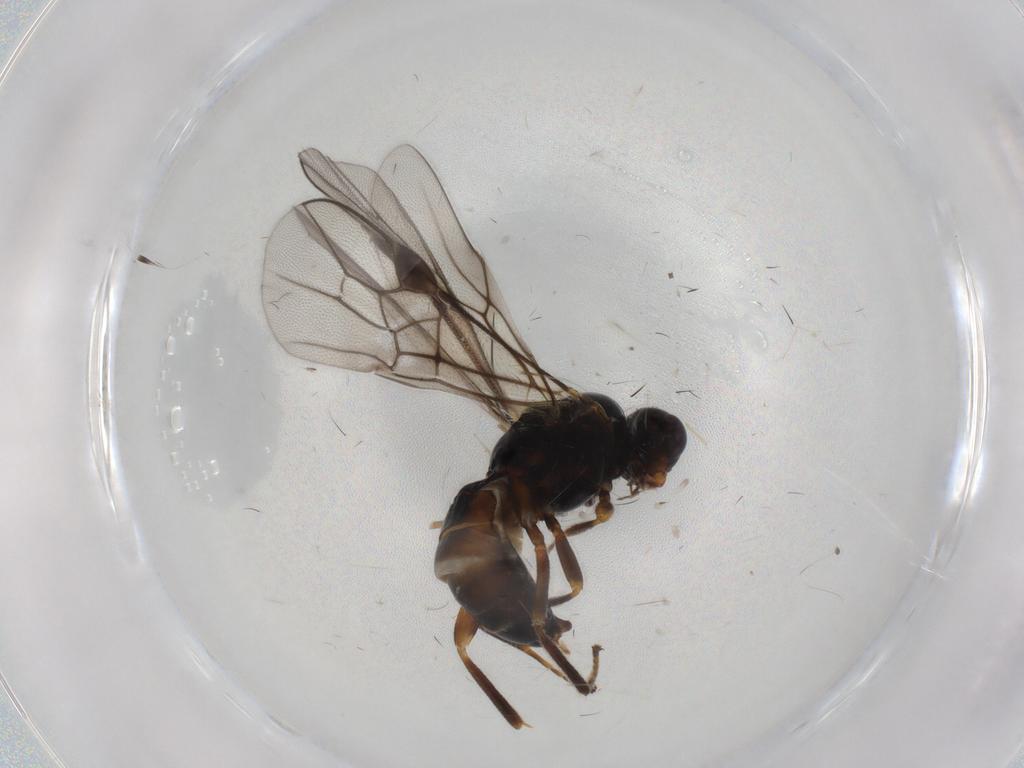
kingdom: Animalia
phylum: Arthropoda
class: Insecta
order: Hymenoptera
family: Braconidae
